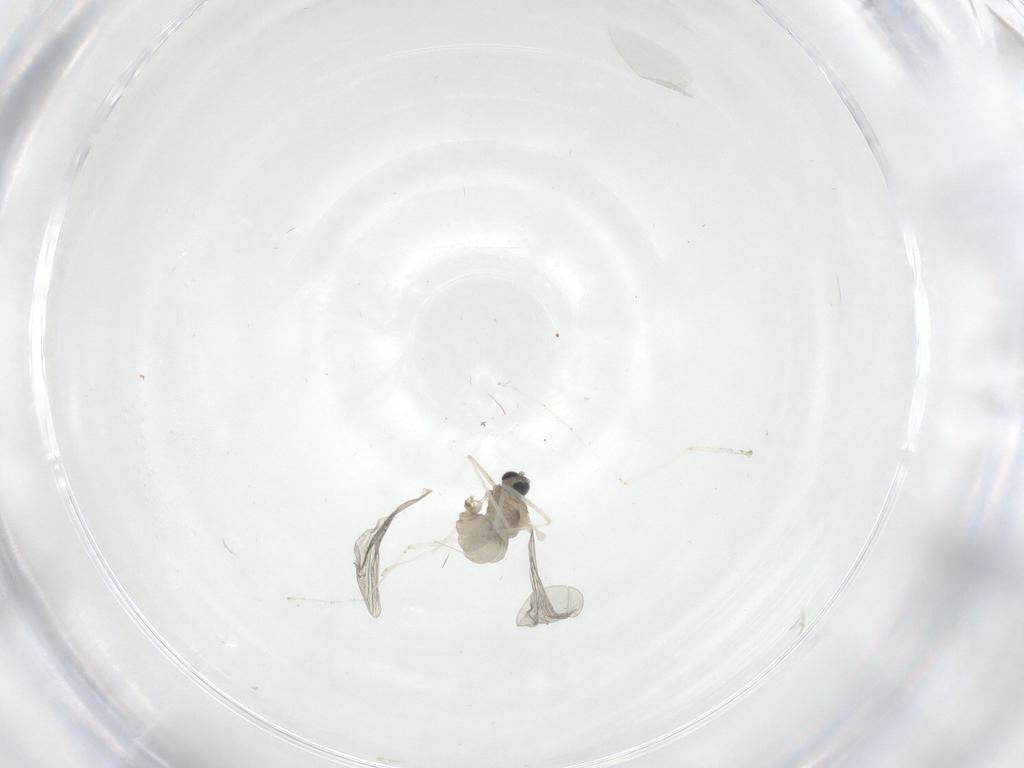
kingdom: Animalia
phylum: Arthropoda
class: Insecta
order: Diptera
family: Cecidomyiidae
